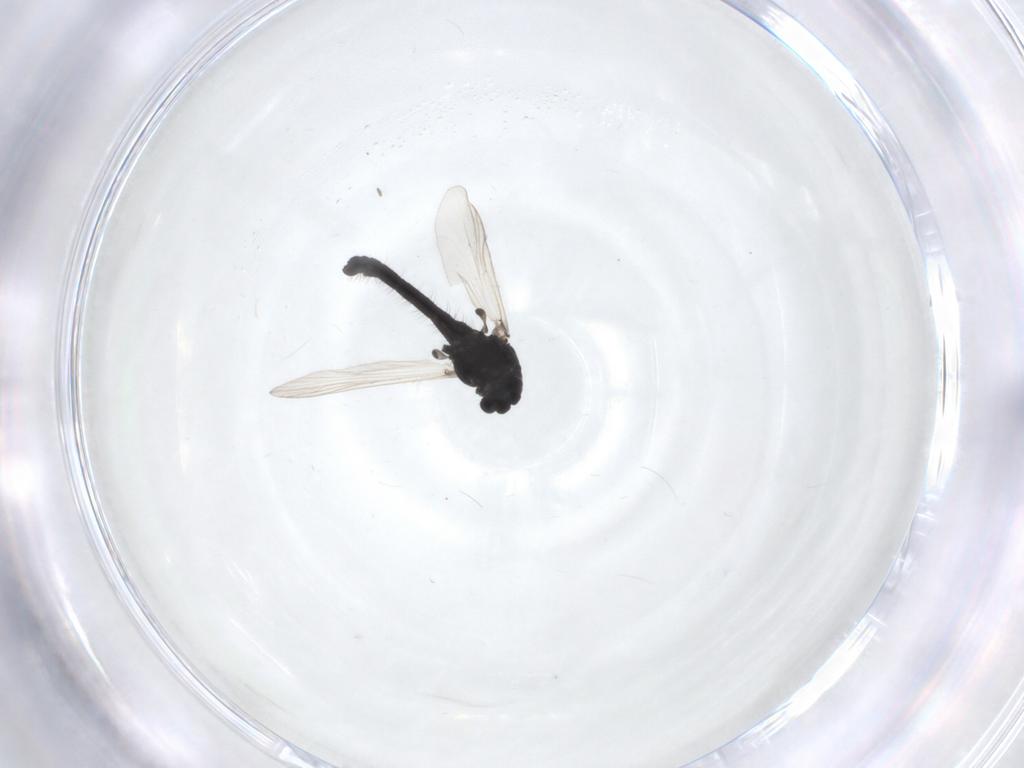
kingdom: Animalia
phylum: Arthropoda
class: Insecta
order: Diptera
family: Chironomidae
